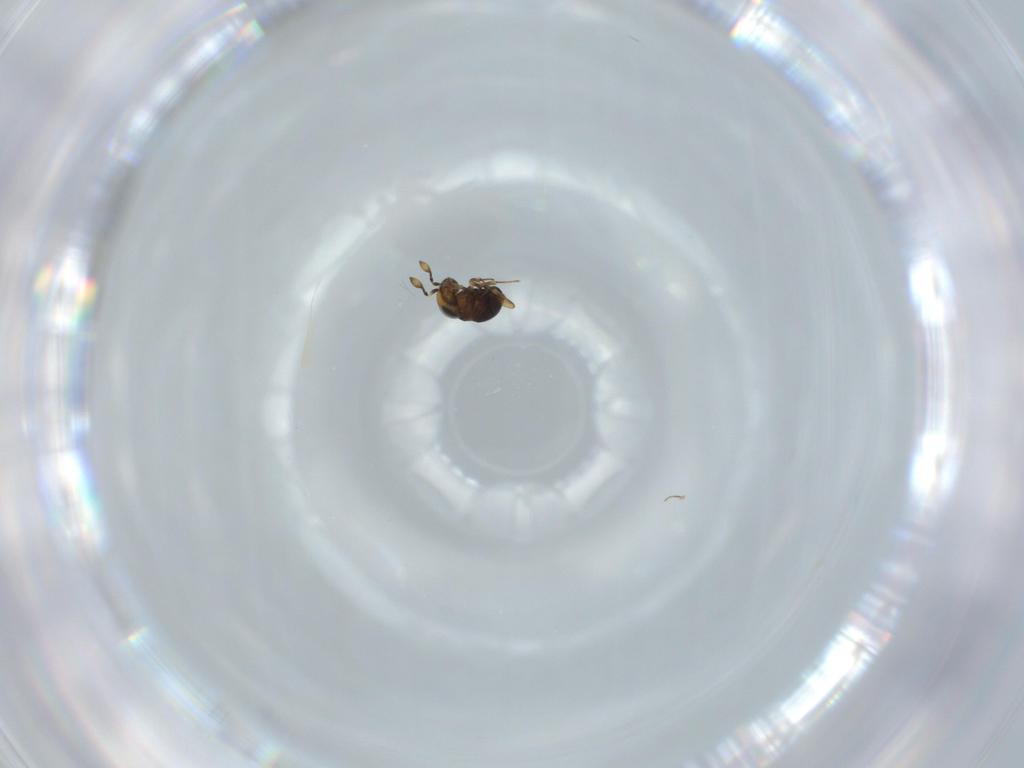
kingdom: Animalia
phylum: Arthropoda
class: Insecta
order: Hymenoptera
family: Scelionidae
